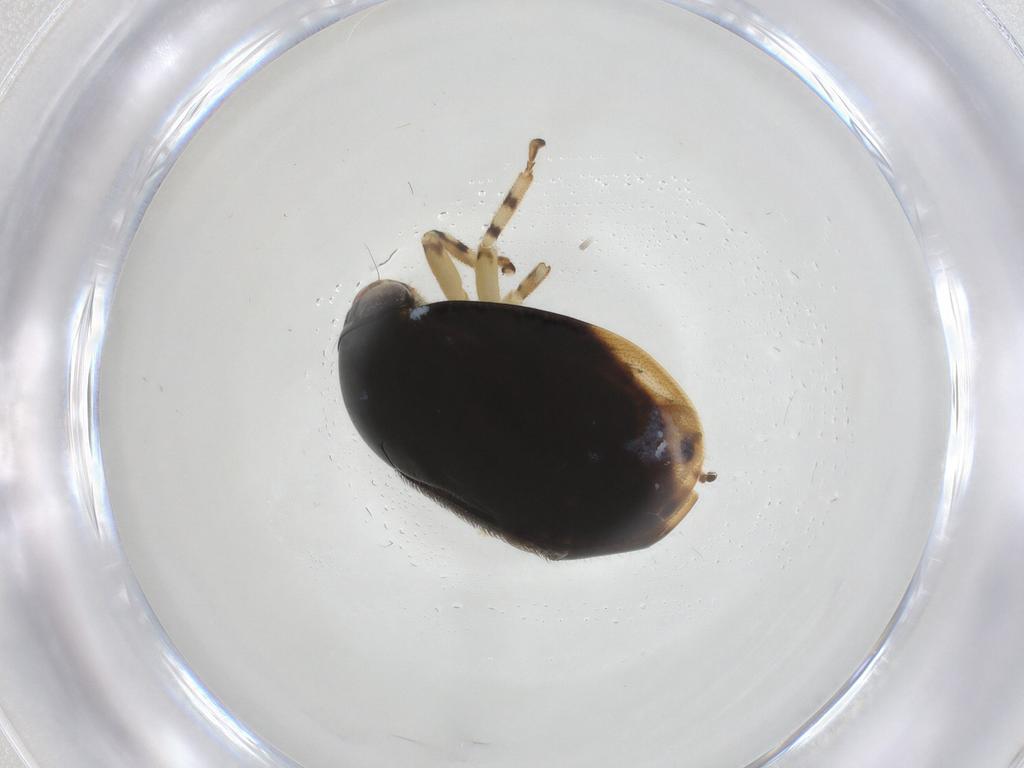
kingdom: Animalia
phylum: Arthropoda
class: Insecta
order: Hemiptera
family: Clastopteridae
